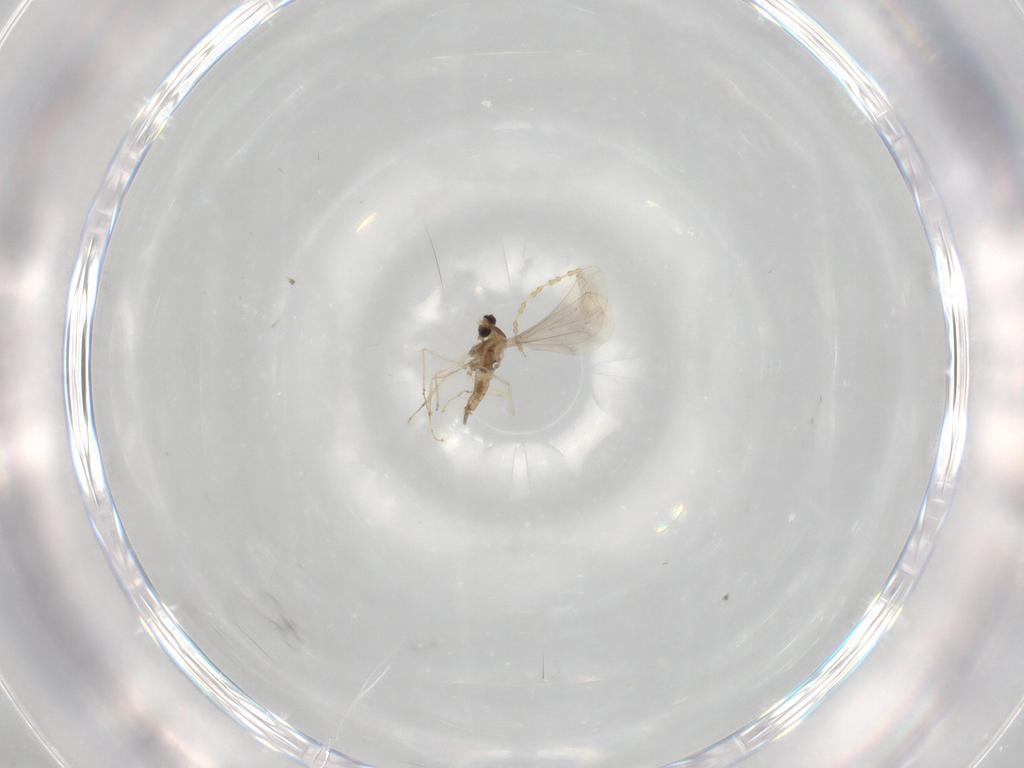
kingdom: Animalia
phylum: Arthropoda
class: Insecta
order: Diptera
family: Cecidomyiidae
